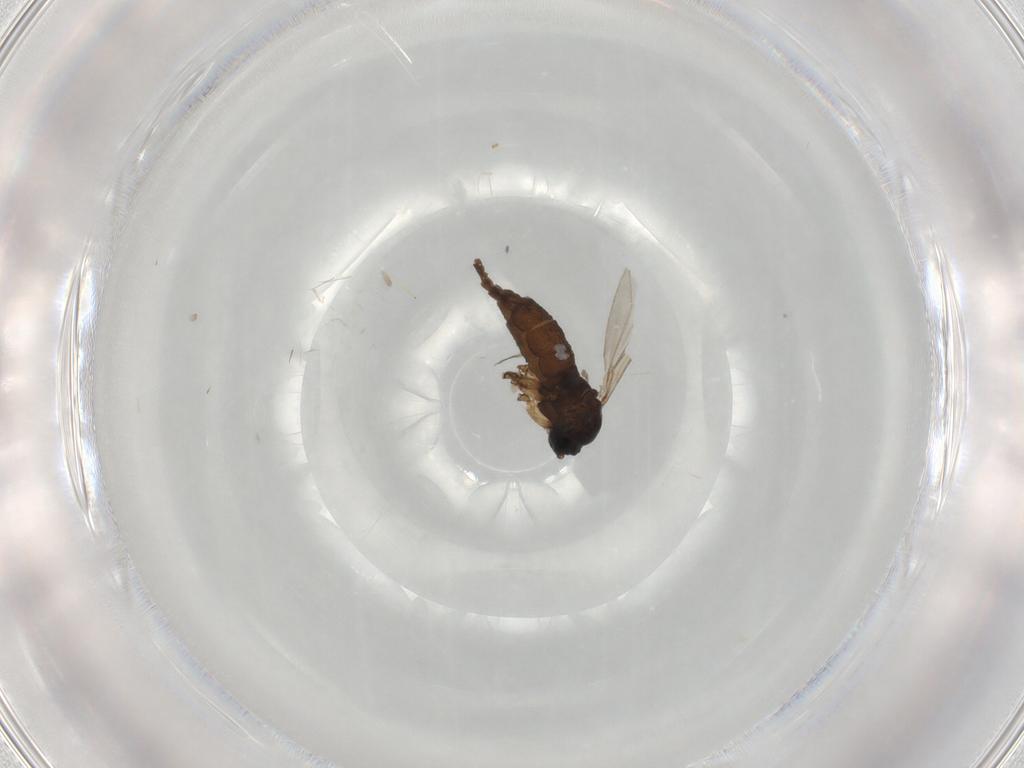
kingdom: Animalia
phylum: Arthropoda
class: Insecta
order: Diptera
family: Sciaridae
